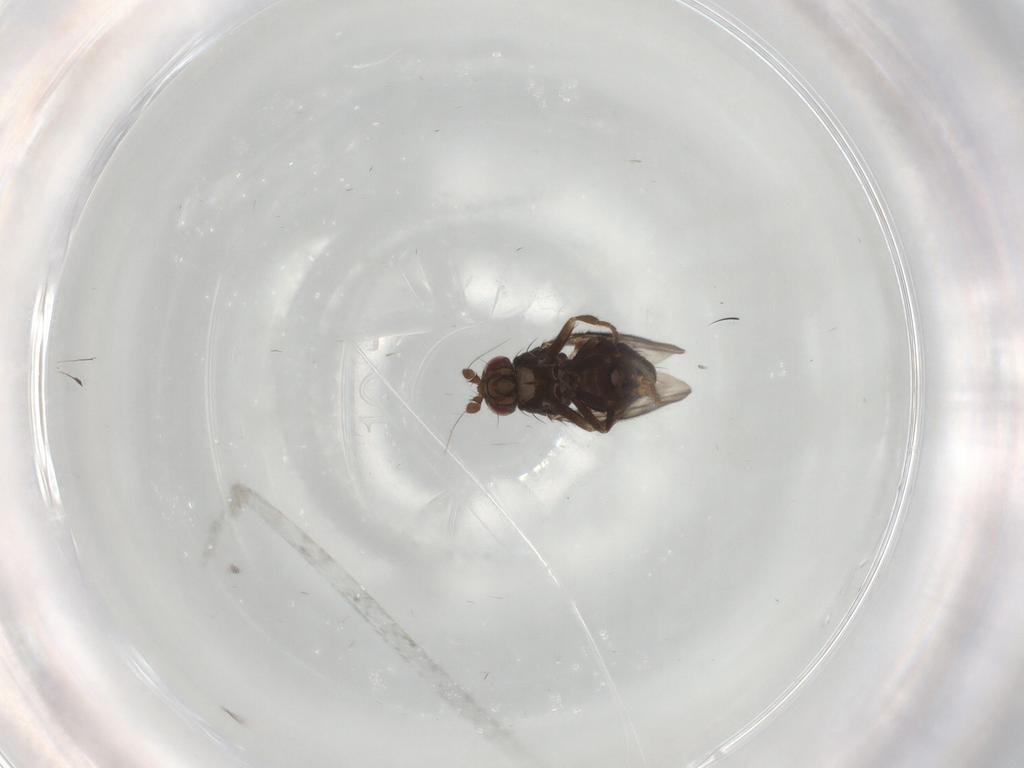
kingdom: Animalia
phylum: Arthropoda
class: Insecta
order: Diptera
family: Sphaeroceridae
